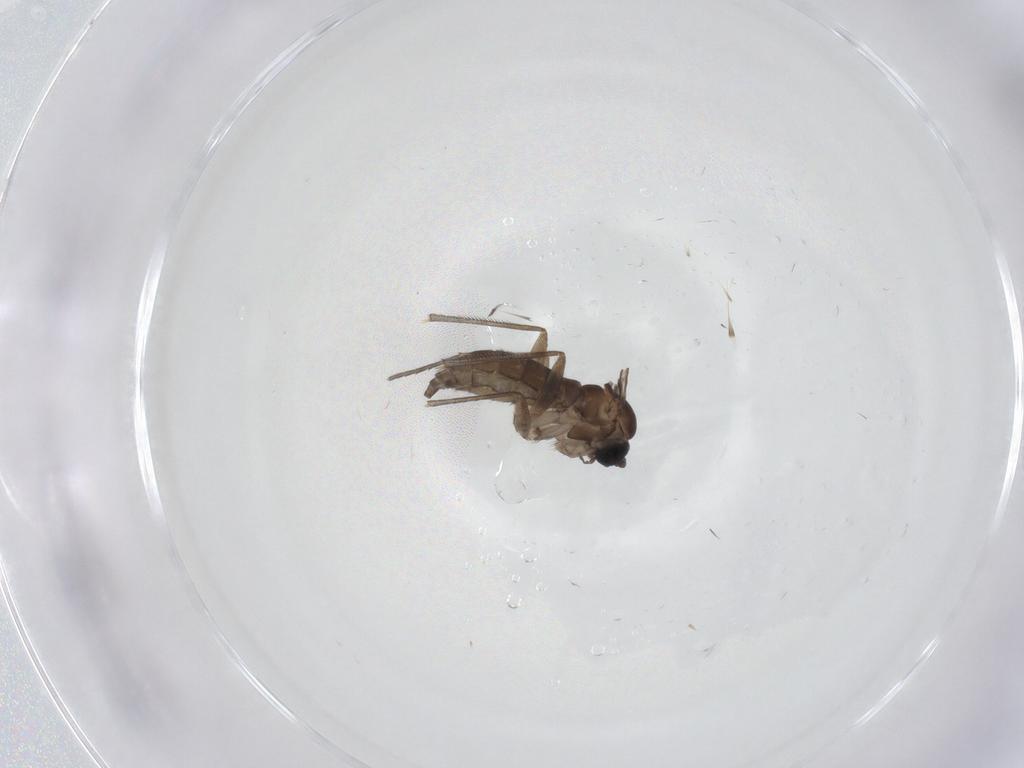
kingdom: Animalia
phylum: Arthropoda
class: Insecta
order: Diptera
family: Sciaridae
